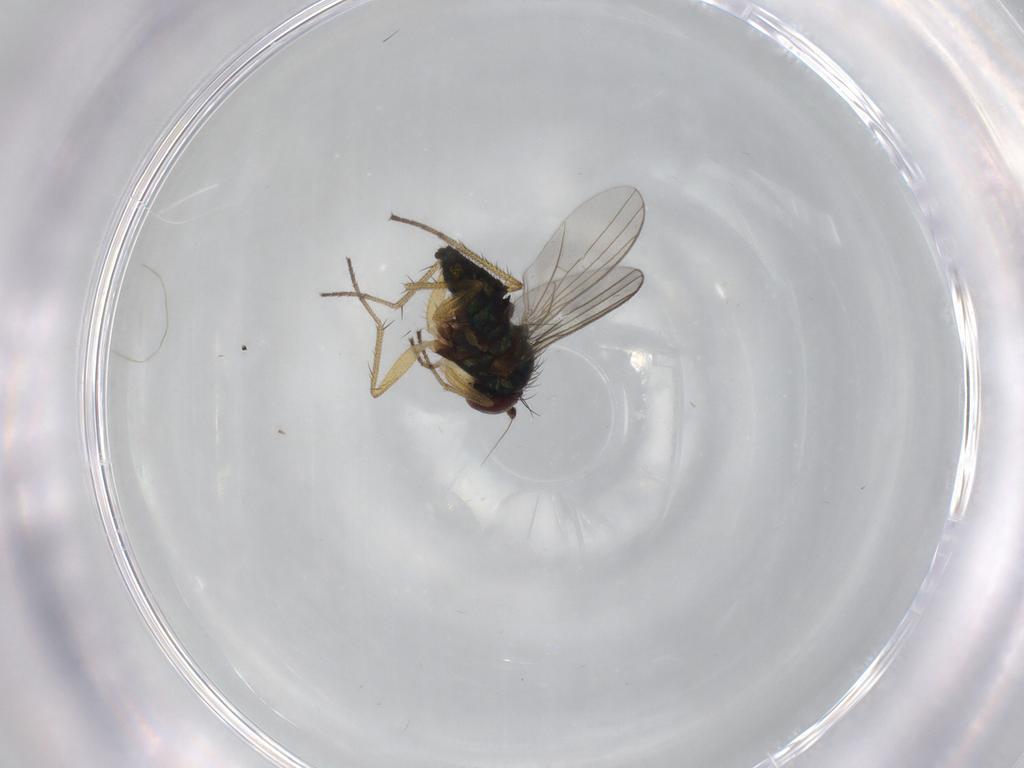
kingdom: Animalia
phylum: Arthropoda
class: Insecta
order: Diptera
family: Dolichopodidae
